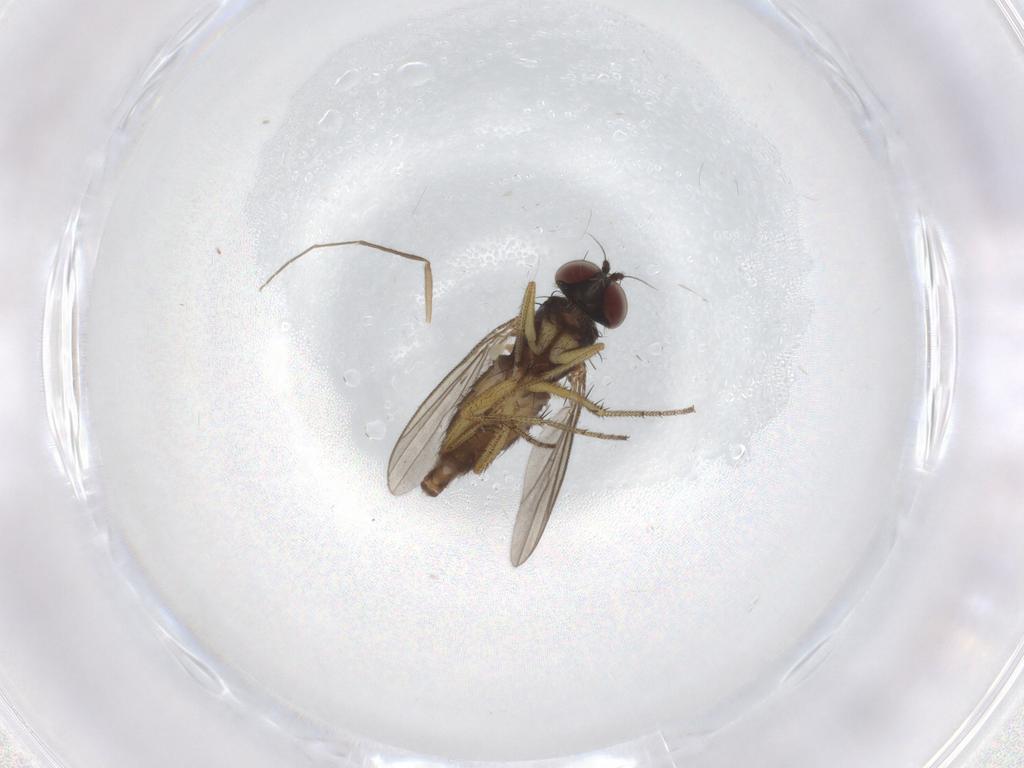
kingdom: Animalia
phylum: Arthropoda
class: Insecta
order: Diptera
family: Chironomidae
